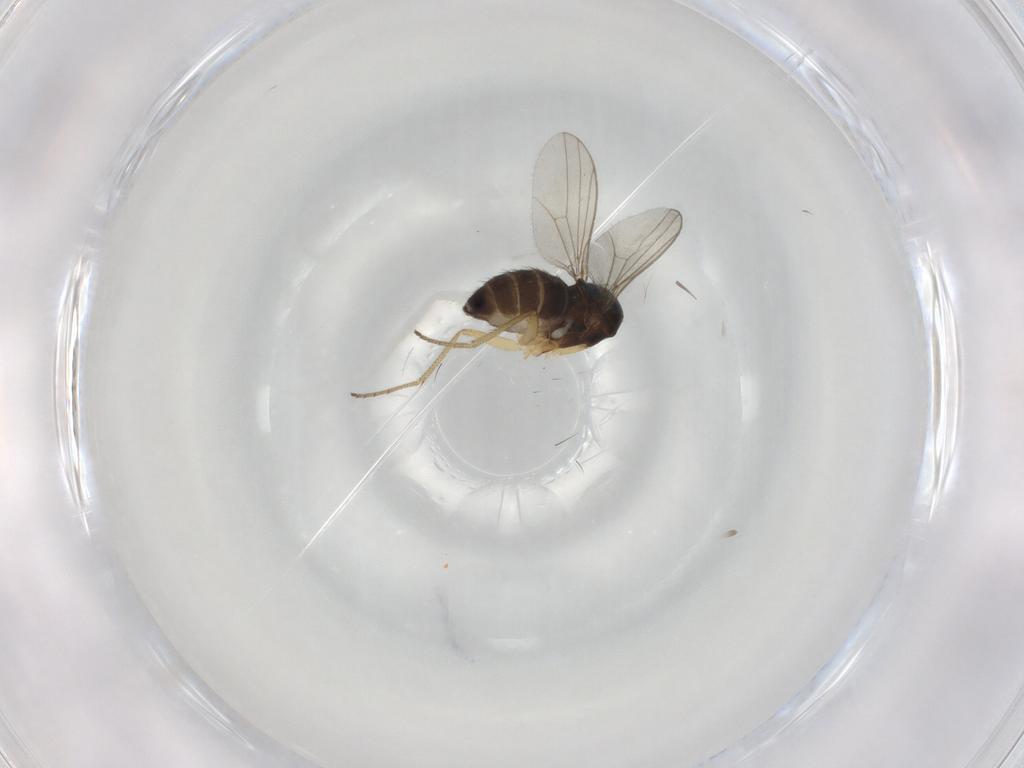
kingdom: Animalia
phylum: Arthropoda
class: Insecta
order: Diptera
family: Dolichopodidae
